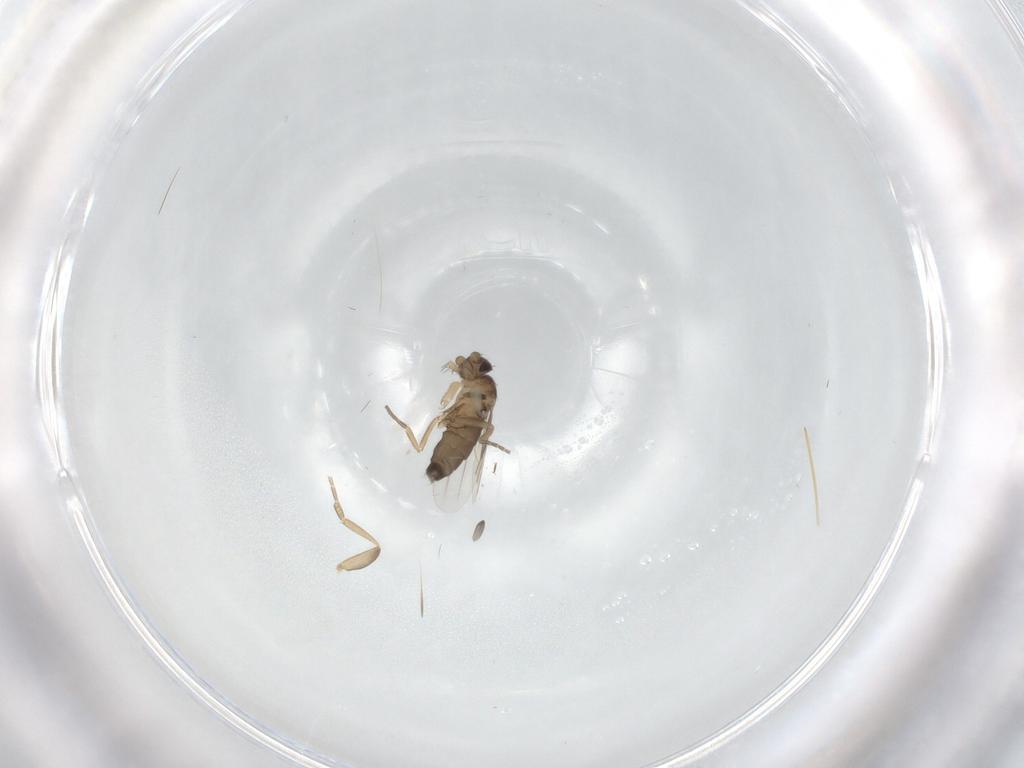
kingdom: Animalia
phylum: Arthropoda
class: Insecta
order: Diptera
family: Phoridae
